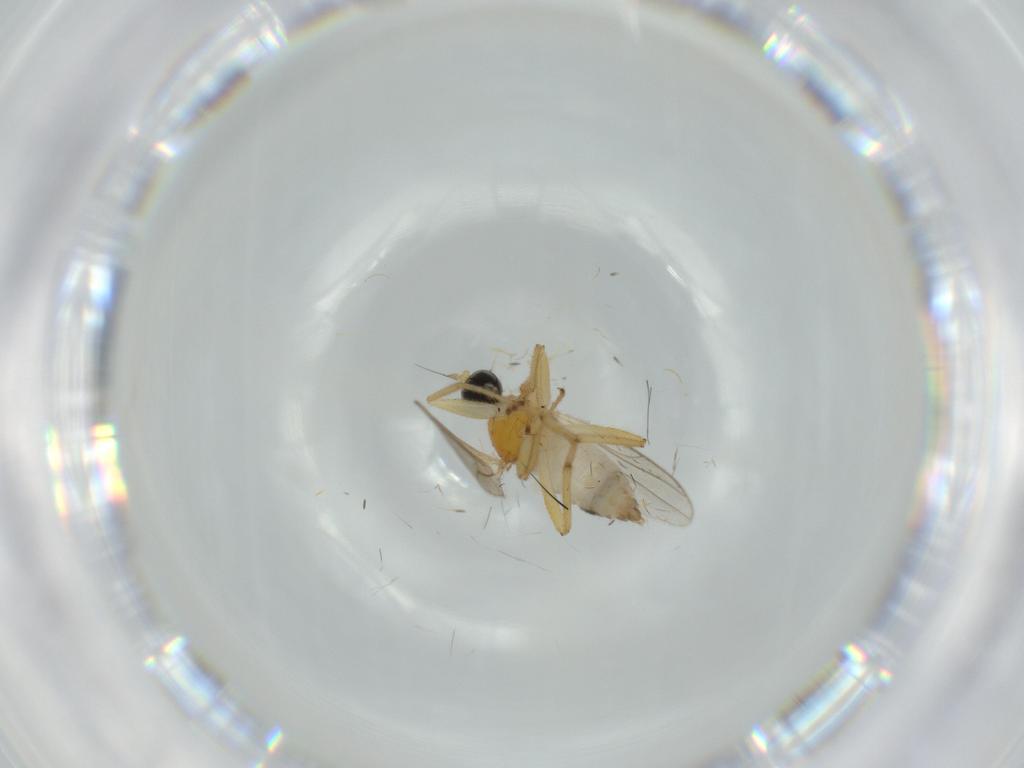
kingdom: Animalia
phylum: Arthropoda
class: Insecta
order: Diptera
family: Hybotidae
